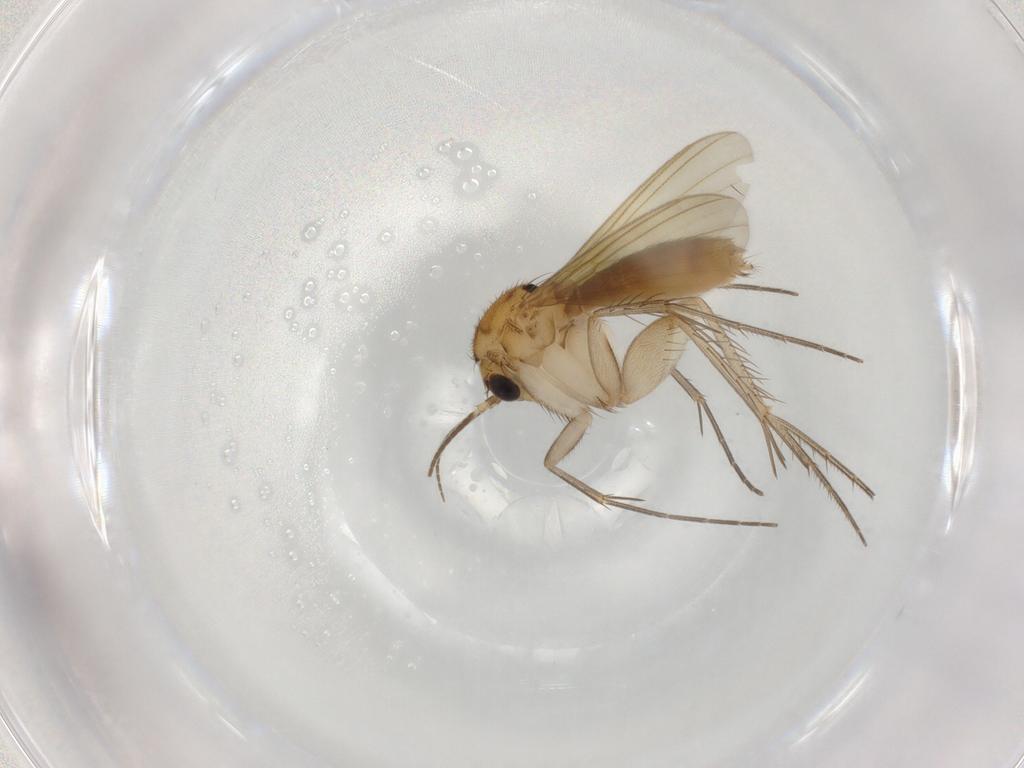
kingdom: Animalia
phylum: Arthropoda
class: Insecta
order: Diptera
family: Mycetophilidae
